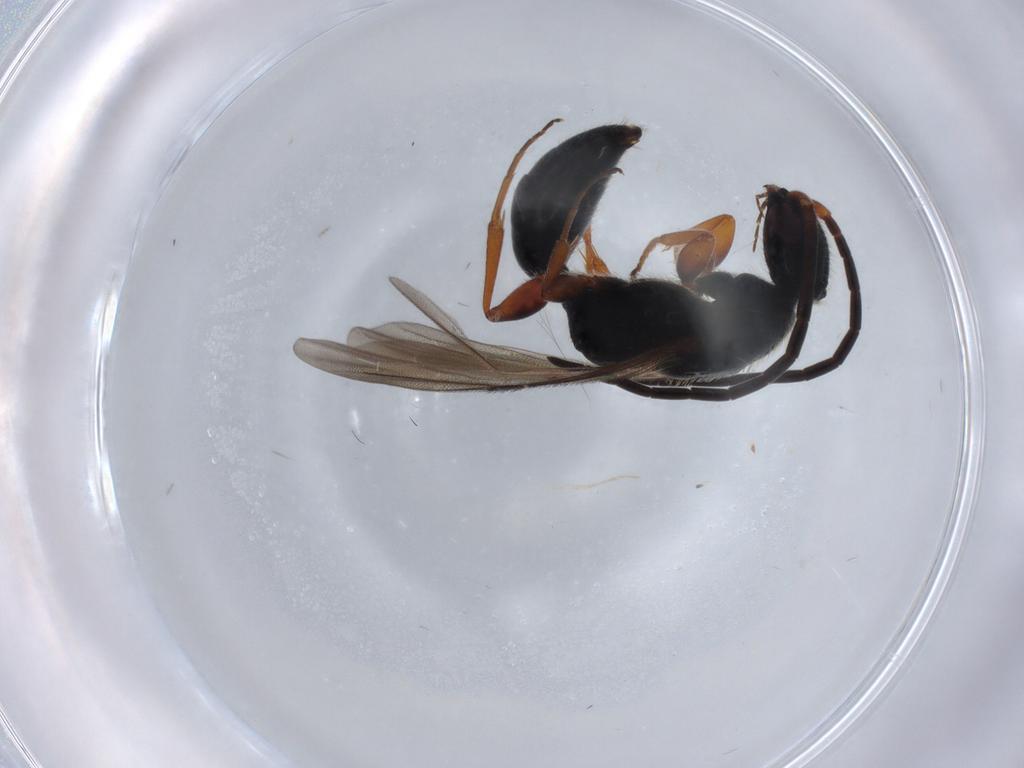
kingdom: Animalia
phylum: Arthropoda
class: Insecta
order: Hymenoptera
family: Bethylidae
